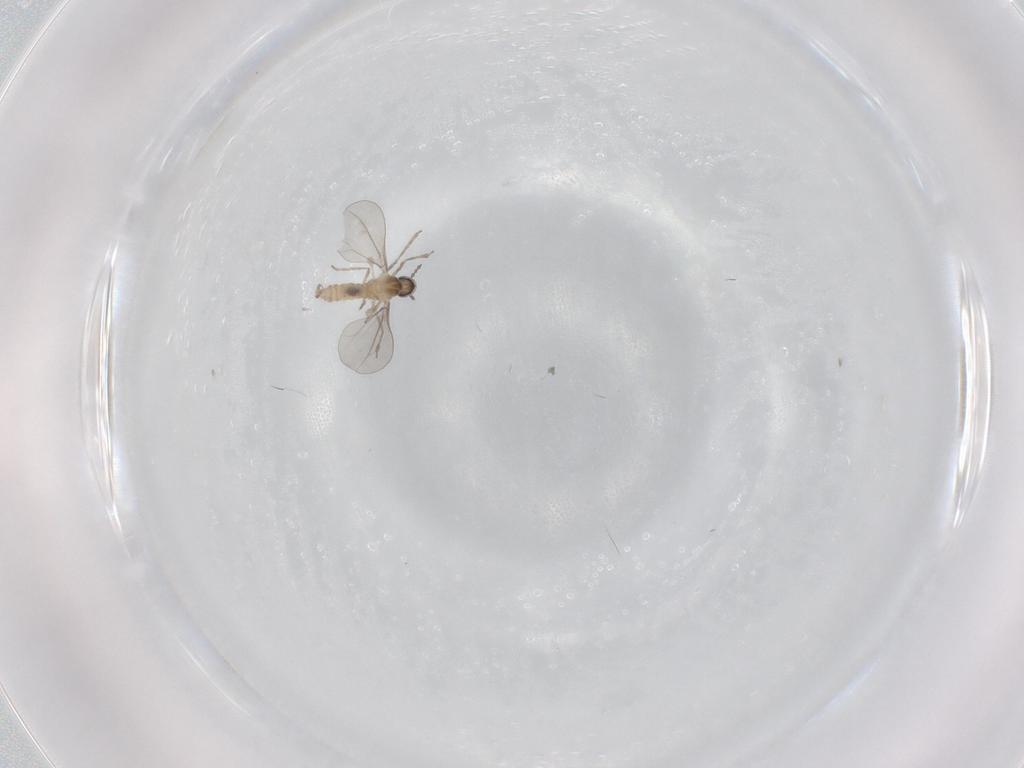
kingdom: Animalia
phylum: Arthropoda
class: Insecta
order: Diptera
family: Cecidomyiidae
